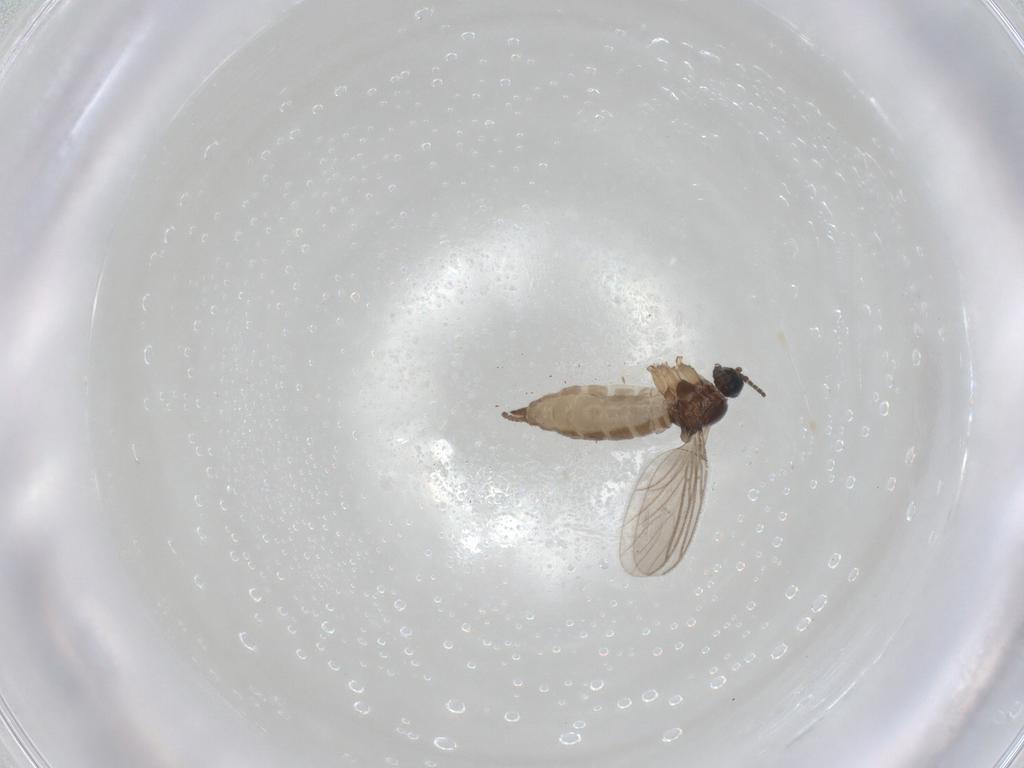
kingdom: Animalia
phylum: Arthropoda
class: Insecta
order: Diptera
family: Sciaridae
